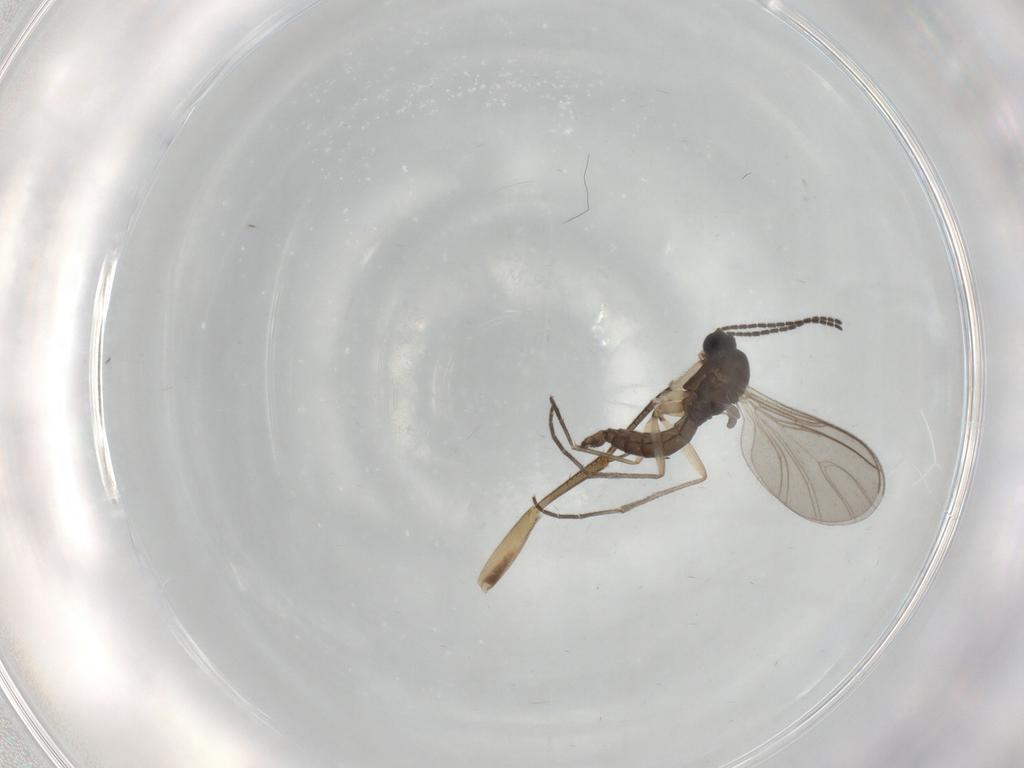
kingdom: Animalia
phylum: Arthropoda
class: Insecta
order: Diptera
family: Sciaridae
